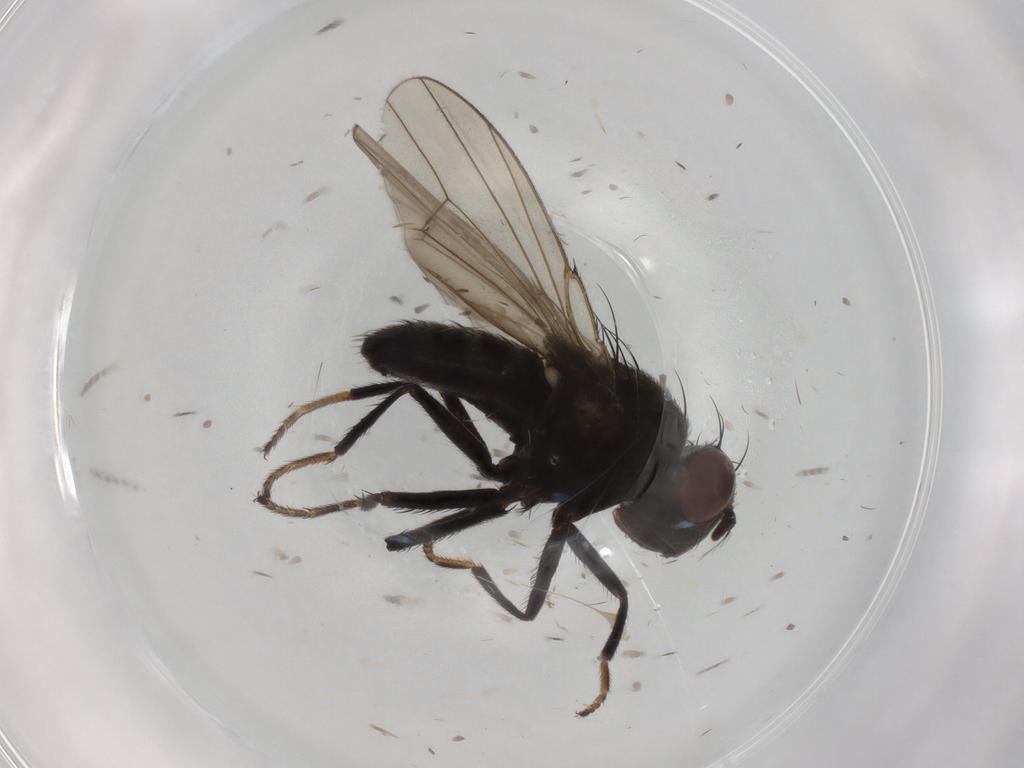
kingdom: Animalia
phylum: Arthropoda
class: Insecta
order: Diptera
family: Ephydridae
